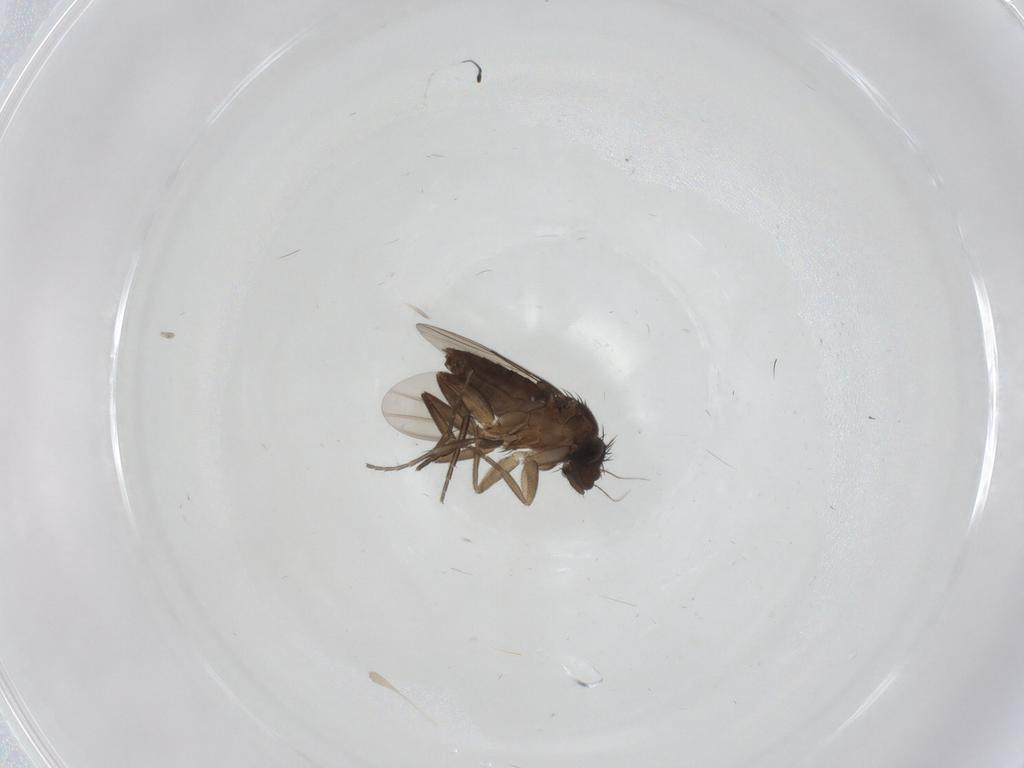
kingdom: Animalia
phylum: Arthropoda
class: Insecta
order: Diptera
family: Phoridae
